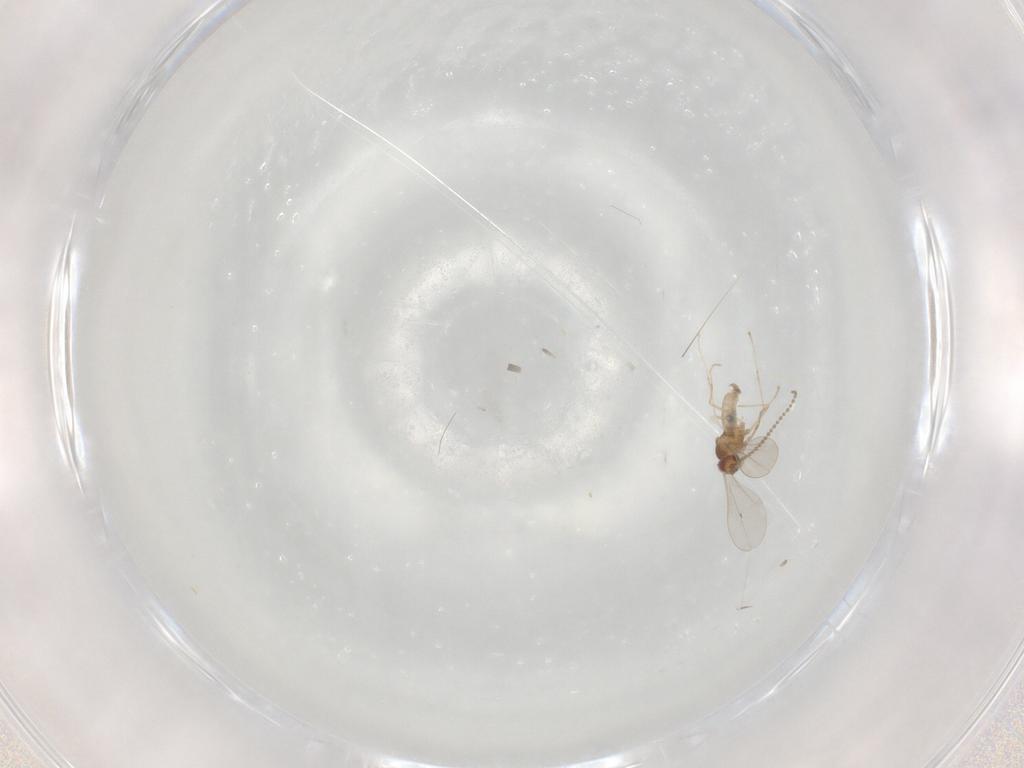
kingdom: Animalia
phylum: Arthropoda
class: Insecta
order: Diptera
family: Cecidomyiidae
